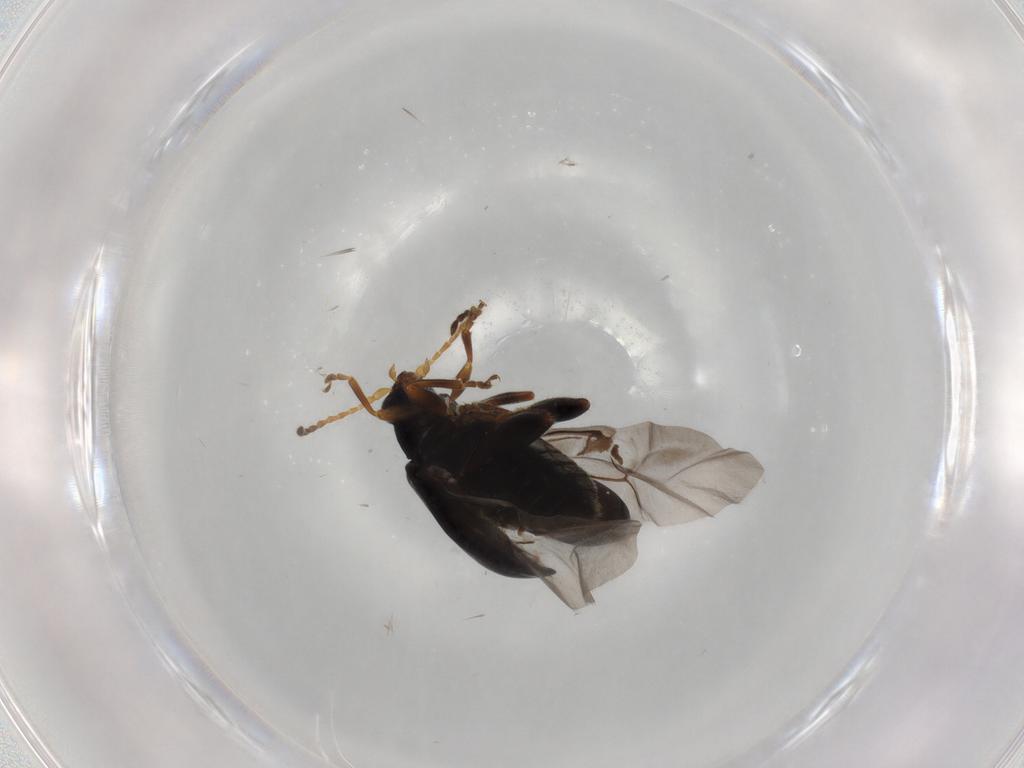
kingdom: Animalia
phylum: Arthropoda
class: Insecta
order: Coleoptera
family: Chrysomelidae
